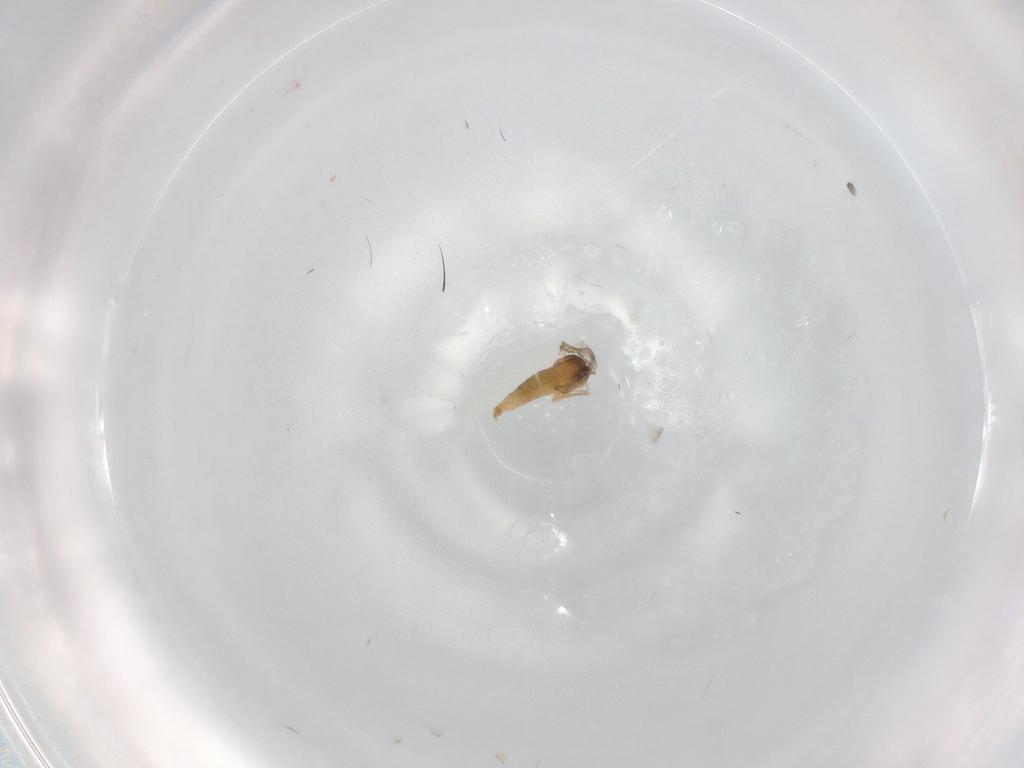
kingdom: Animalia
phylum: Arthropoda
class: Insecta
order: Diptera
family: Cecidomyiidae
